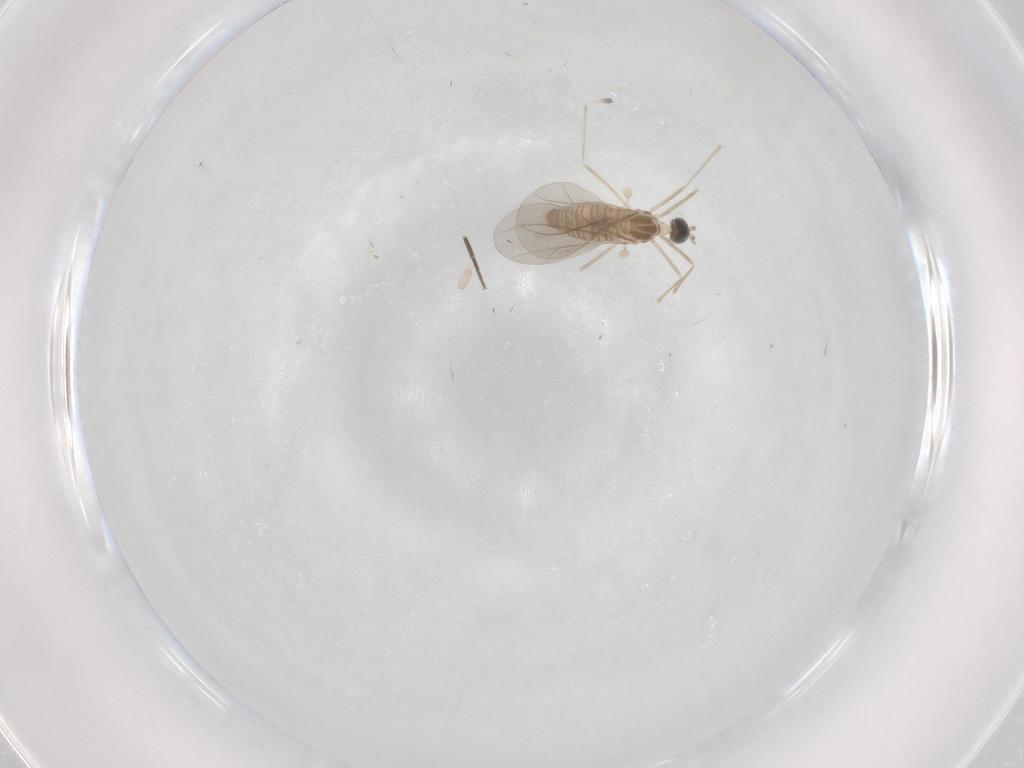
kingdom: Animalia
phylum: Arthropoda
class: Insecta
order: Diptera
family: Cecidomyiidae
